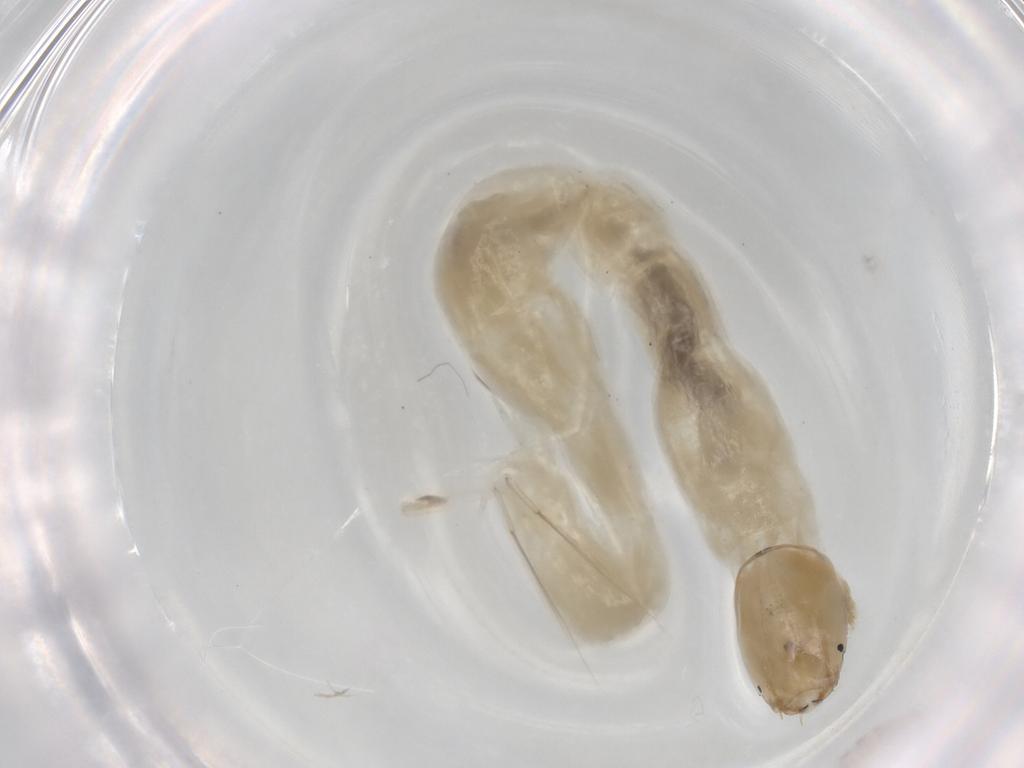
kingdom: Animalia
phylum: Arthropoda
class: Insecta
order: Diptera
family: Chironomidae
